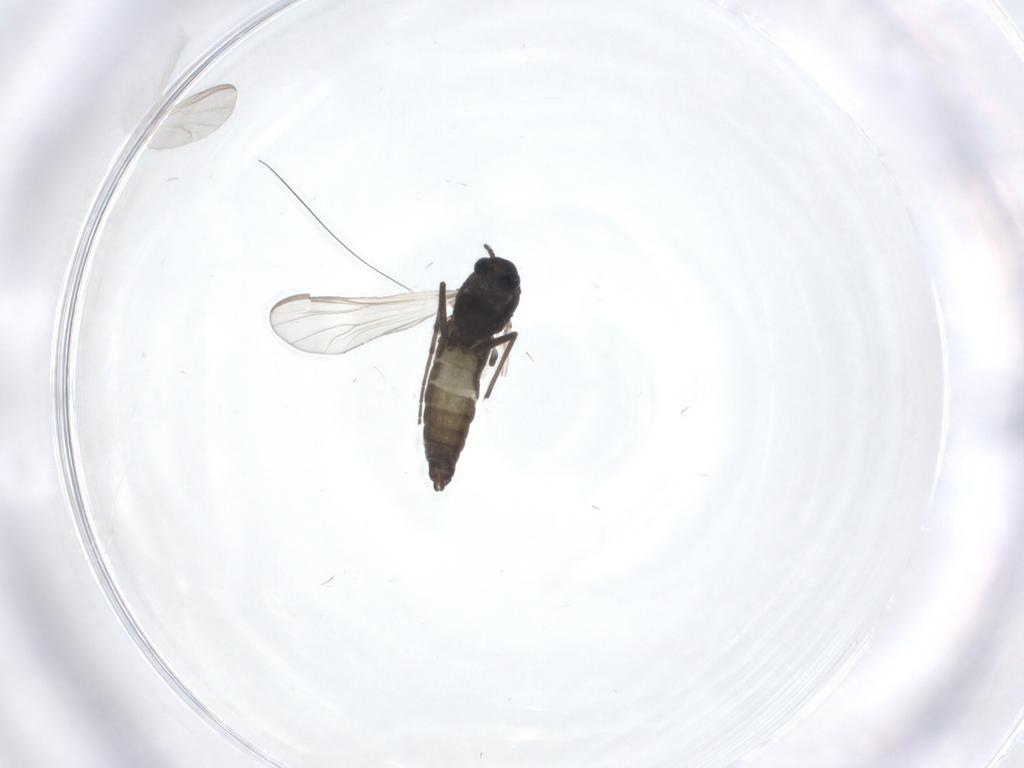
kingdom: Animalia
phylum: Arthropoda
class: Insecta
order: Diptera
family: Chironomidae
